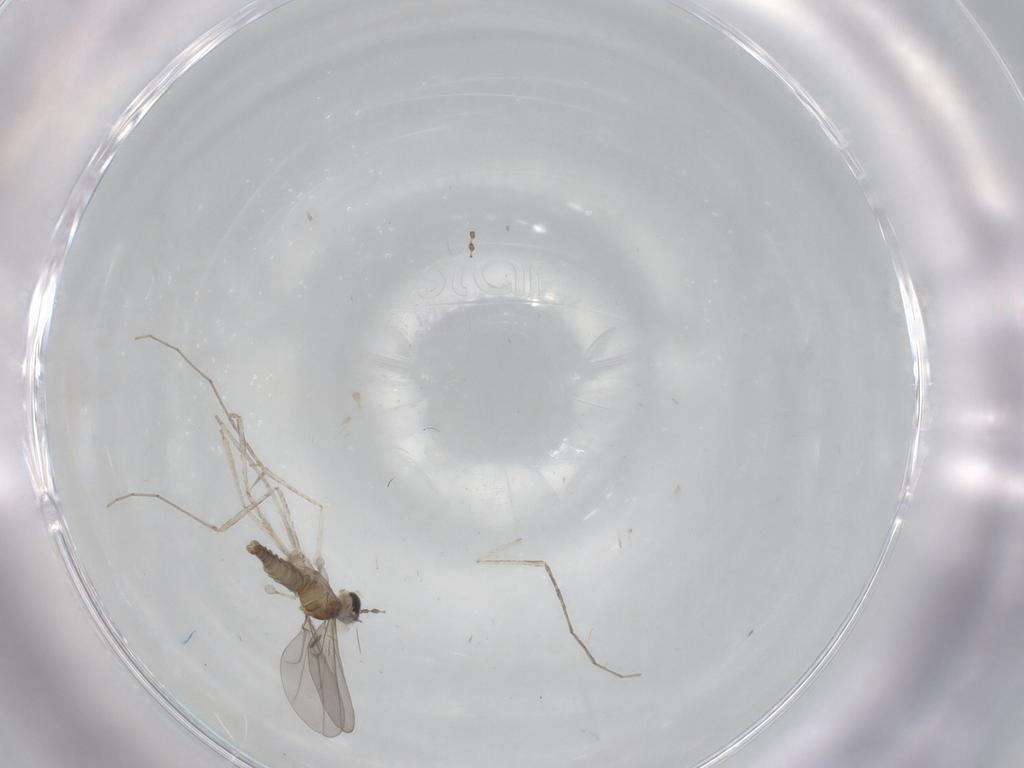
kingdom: Animalia
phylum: Arthropoda
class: Insecta
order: Diptera
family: Cecidomyiidae
